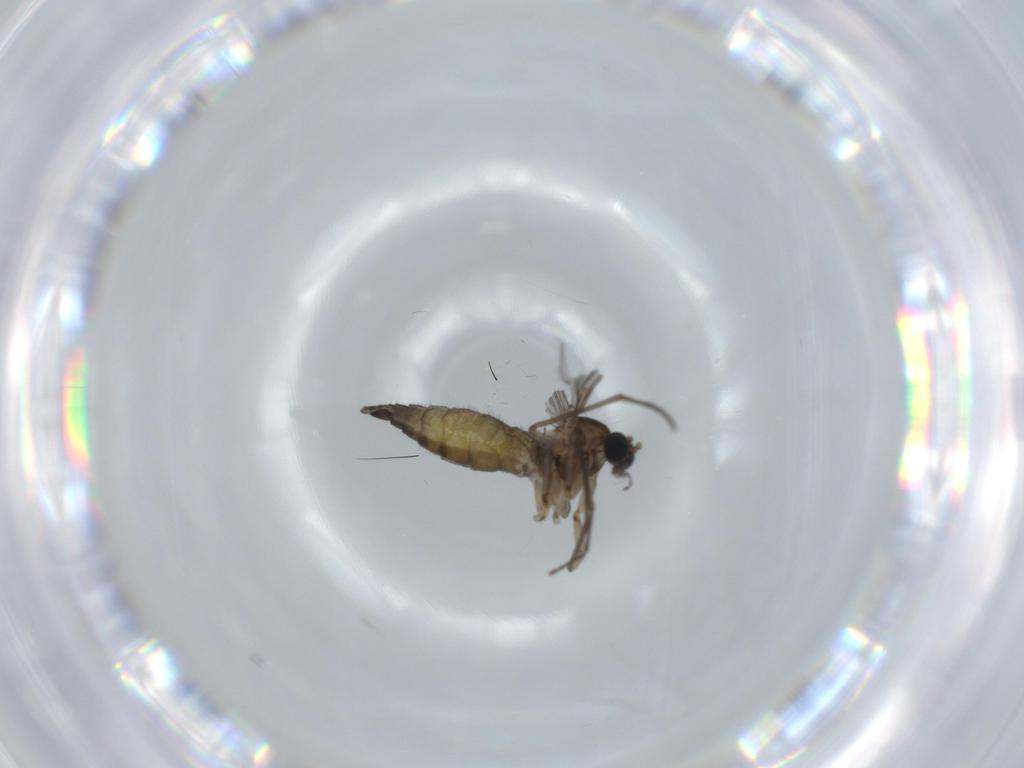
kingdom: Animalia
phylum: Arthropoda
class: Insecta
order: Diptera
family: Sciaridae
